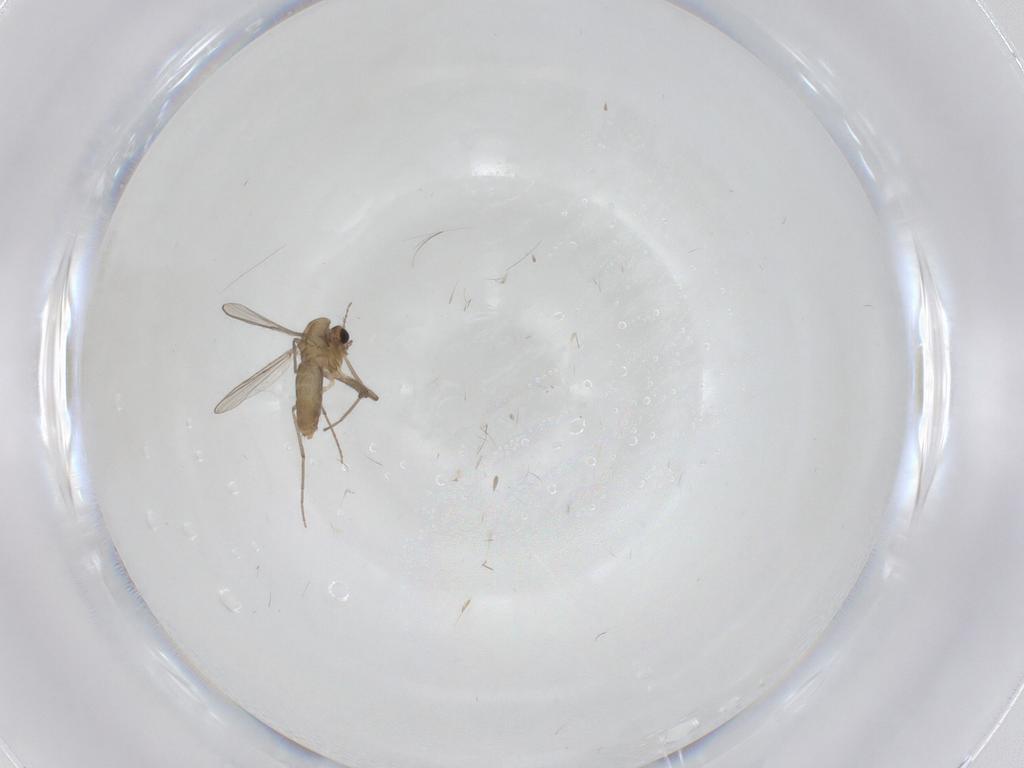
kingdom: Animalia
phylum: Arthropoda
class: Insecta
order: Diptera
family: Chironomidae
